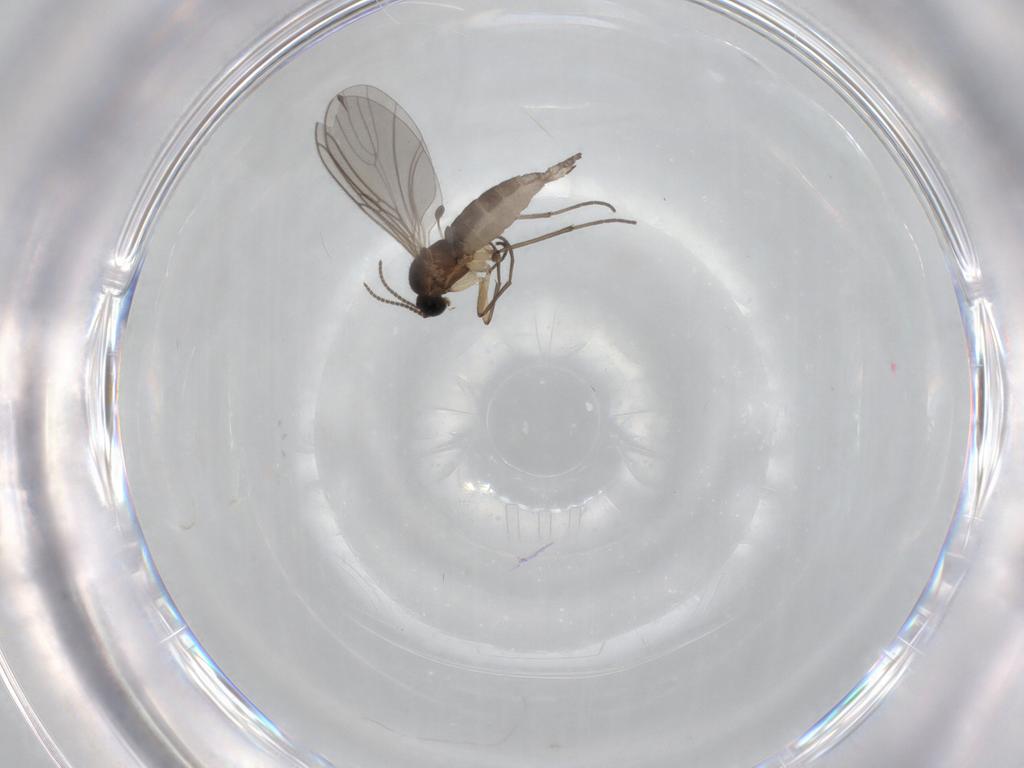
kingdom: Animalia
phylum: Arthropoda
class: Insecta
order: Diptera
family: Sciaridae
